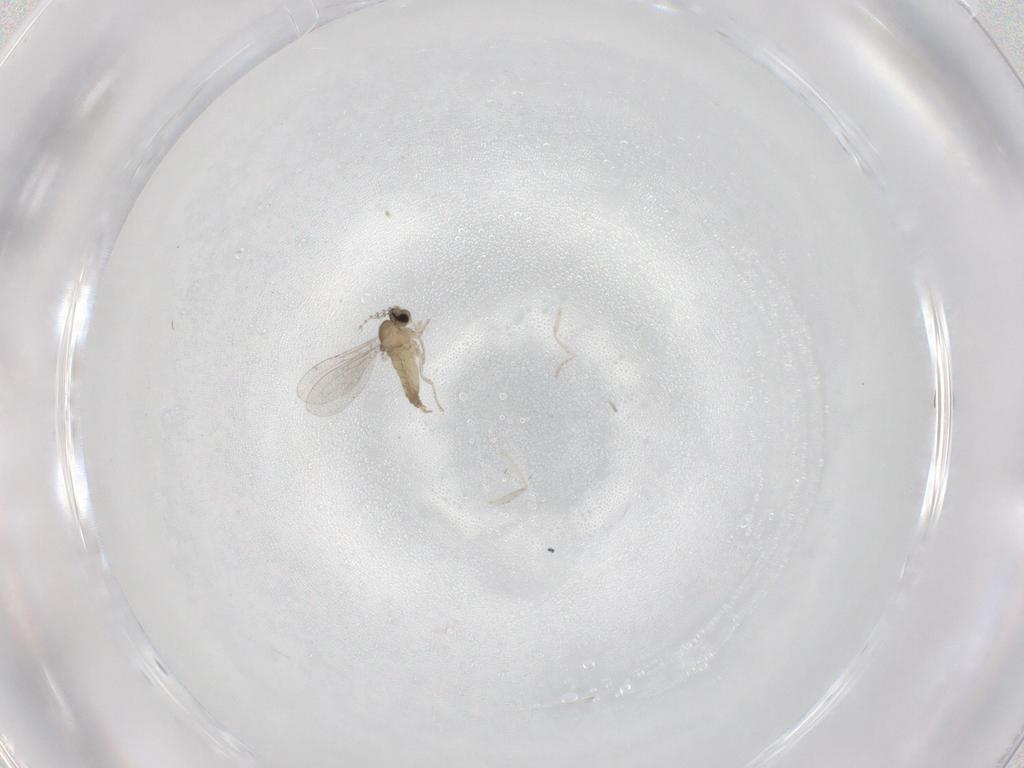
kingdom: Animalia
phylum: Arthropoda
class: Insecta
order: Diptera
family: Cecidomyiidae
